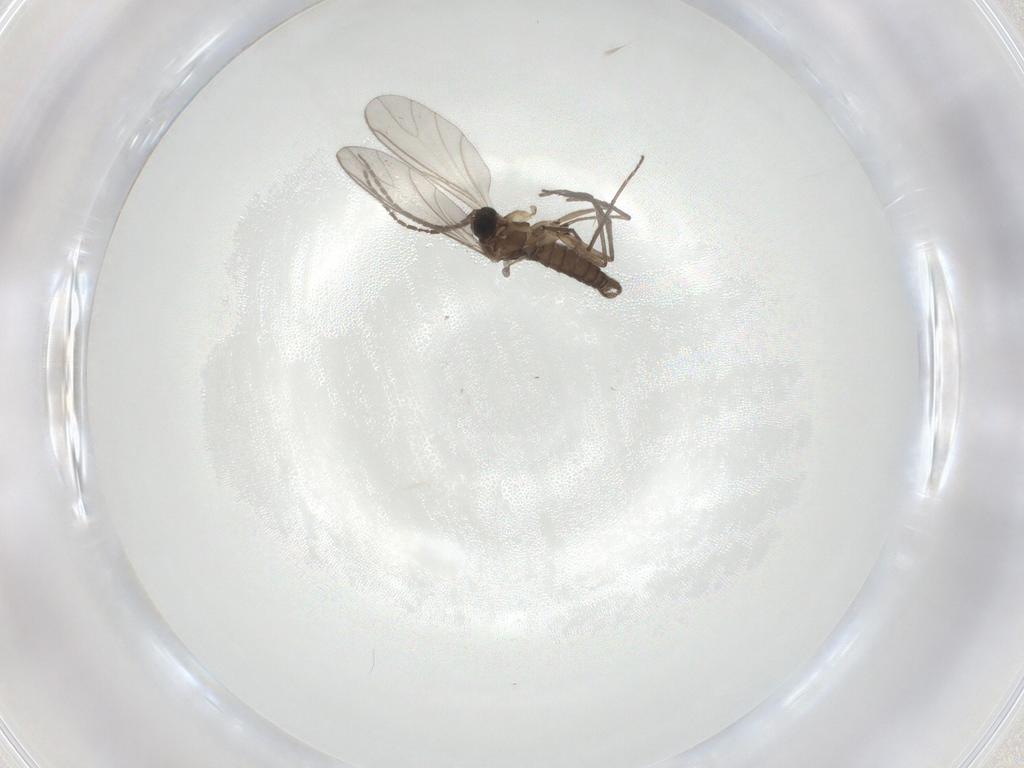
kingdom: Animalia
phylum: Arthropoda
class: Insecta
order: Diptera
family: Sciaridae
